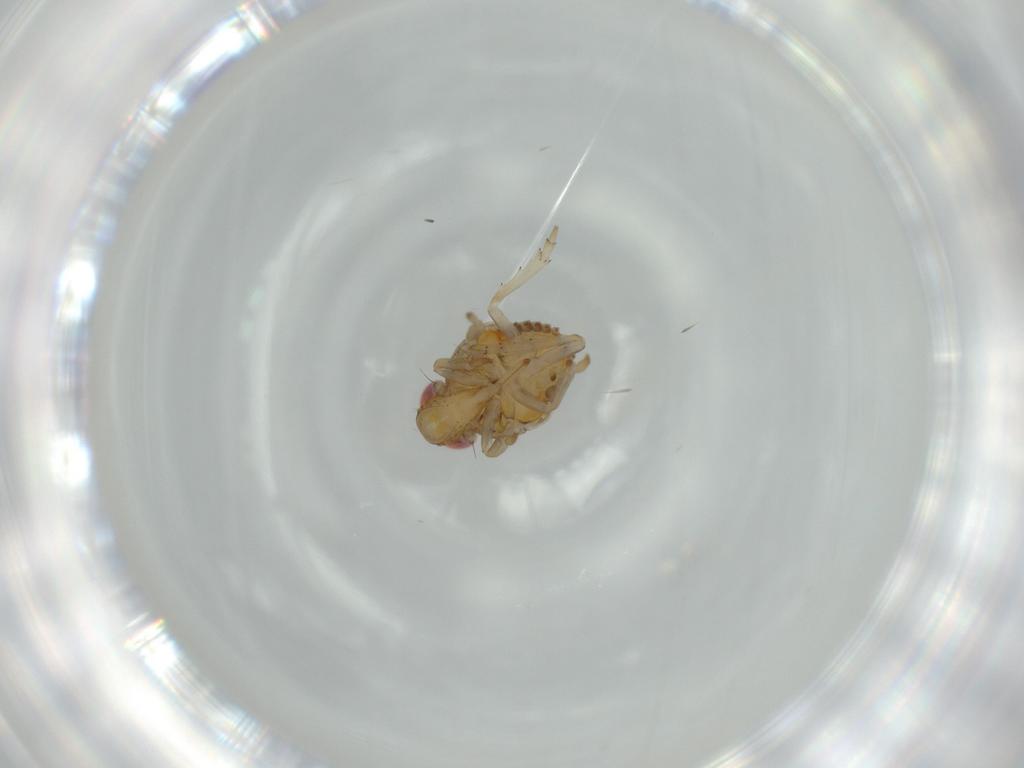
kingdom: Animalia
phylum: Arthropoda
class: Insecta
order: Hemiptera
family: Issidae
